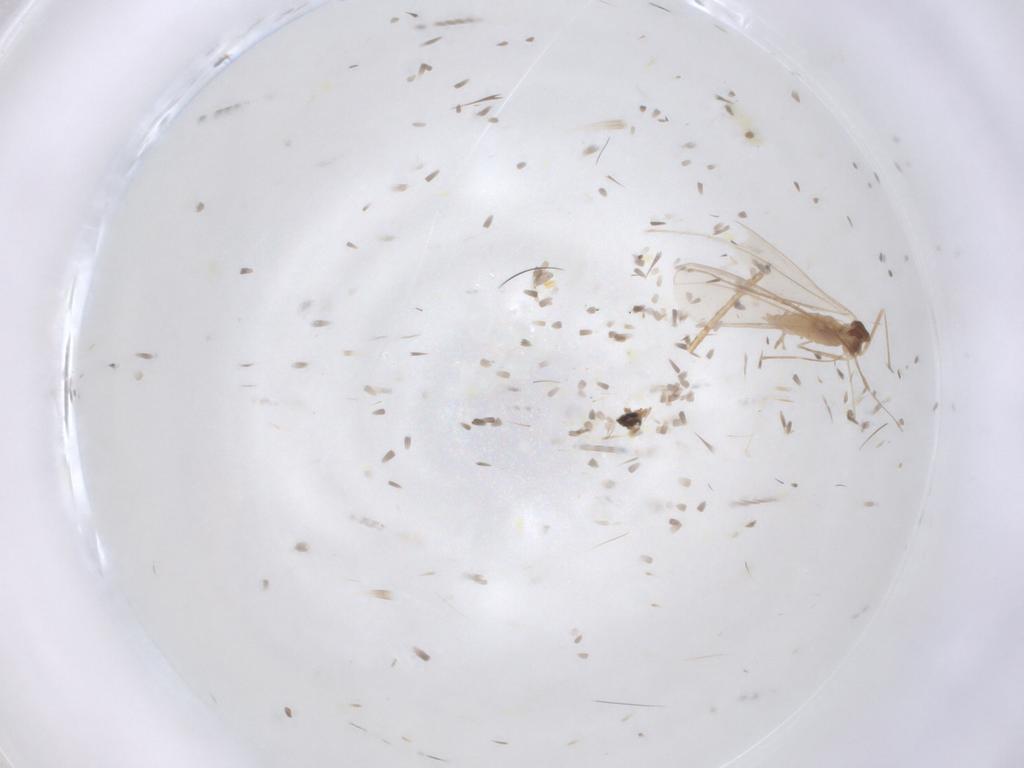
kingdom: Animalia
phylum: Arthropoda
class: Insecta
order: Diptera
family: Cecidomyiidae
